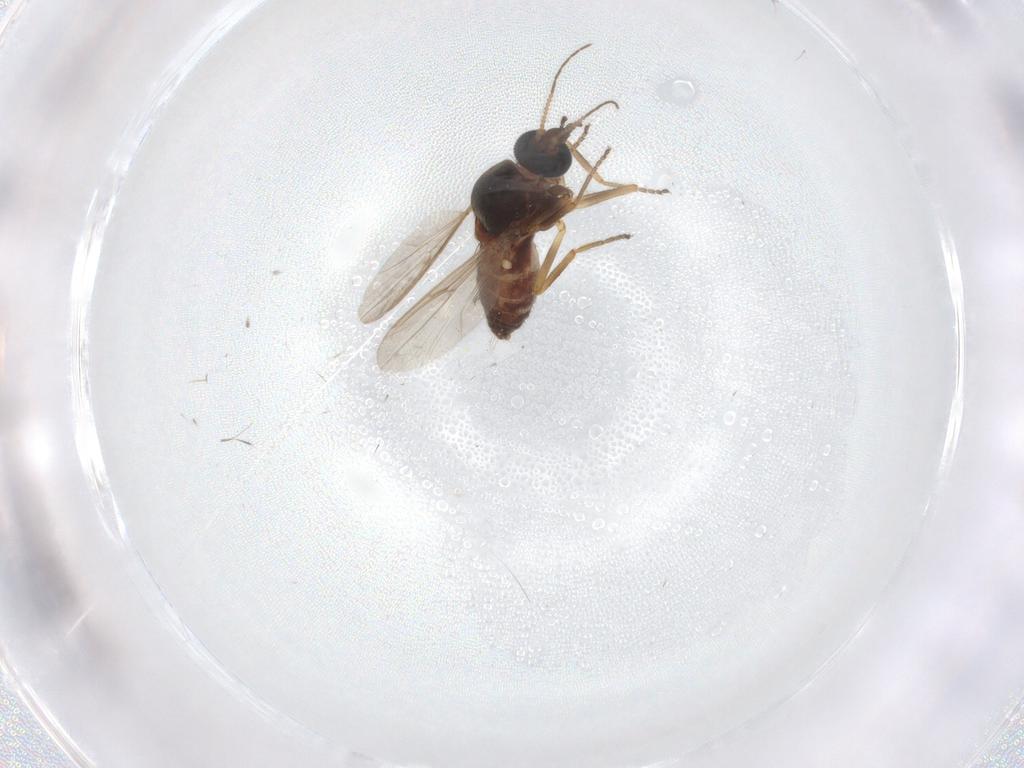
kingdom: Animalia
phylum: Arthropoda
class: Insecta
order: Diptera
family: Ceratopogonidae
